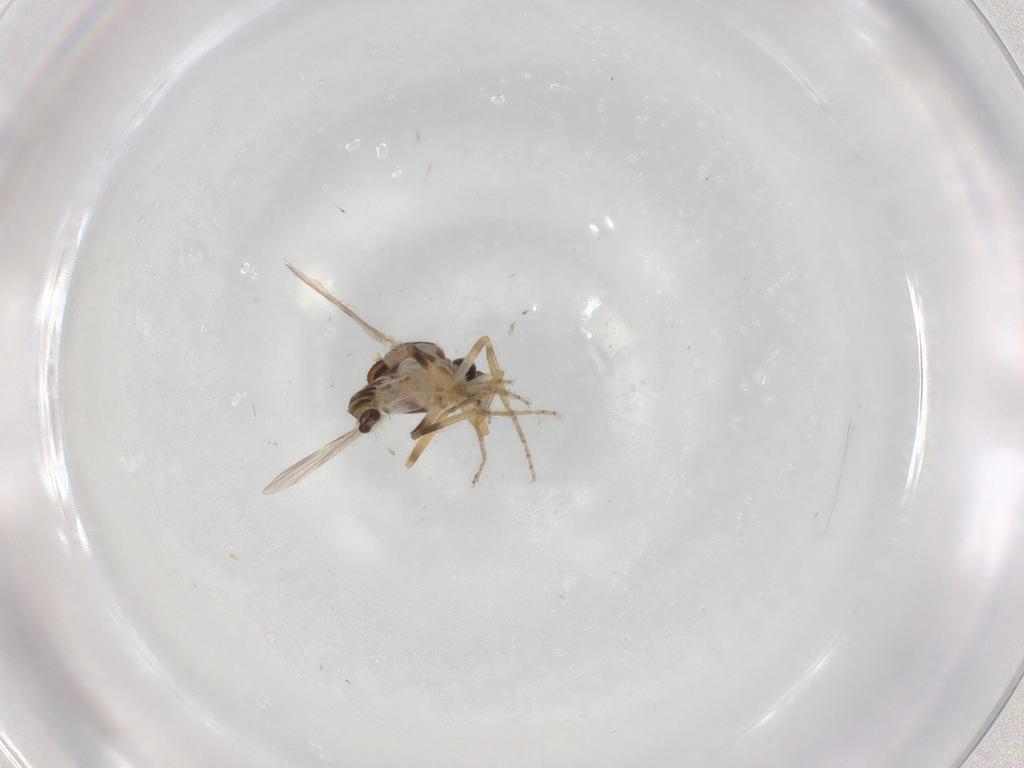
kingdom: Animalia
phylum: Arthropoda
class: Insecta
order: Diptera
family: Ceratopogonidae
